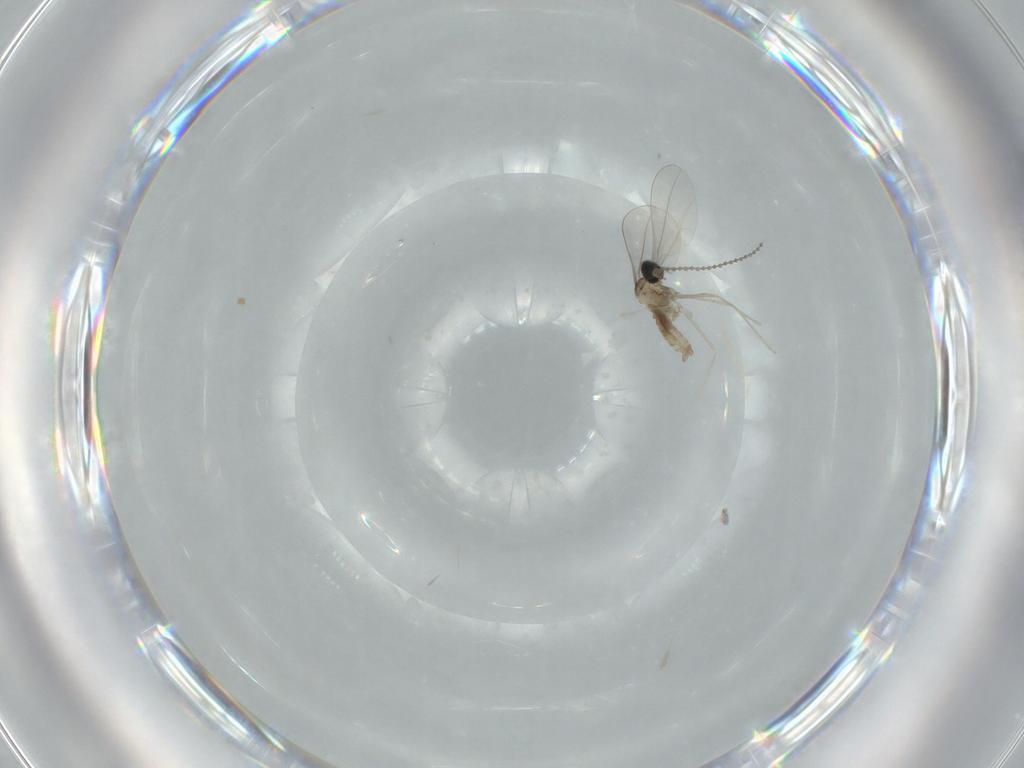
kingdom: Animalia
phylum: Arthropoda
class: Insecta
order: Diptera
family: Cecidomyiidae
